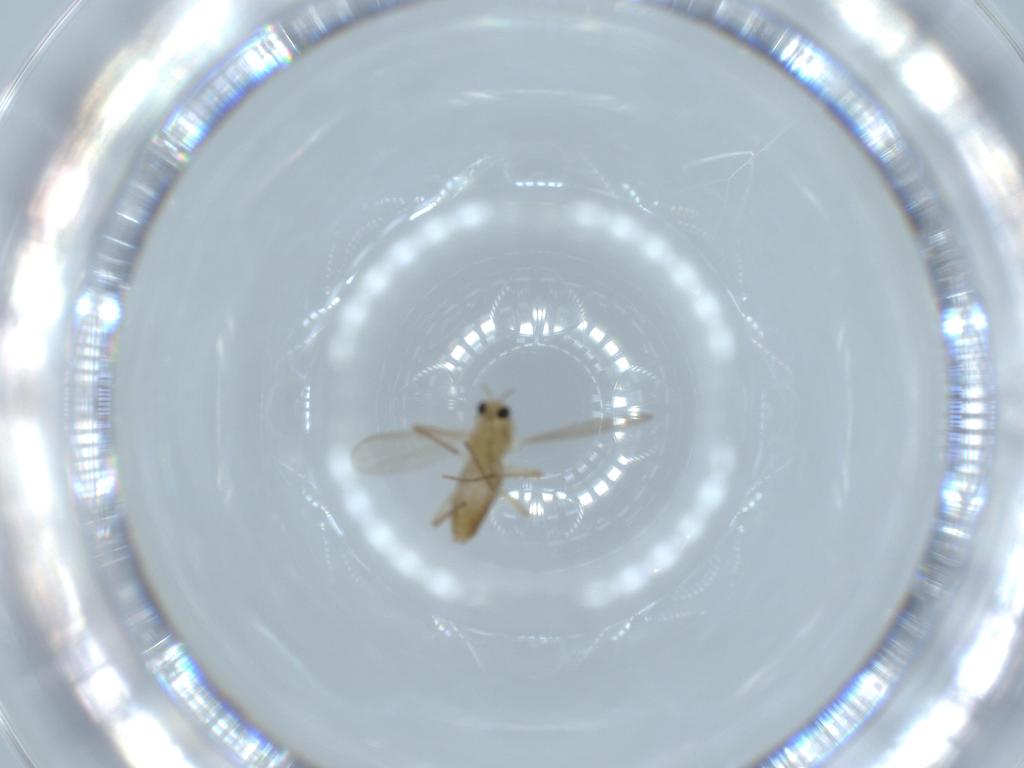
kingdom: Animalia
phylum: Arthropoda
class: Insecta
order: Diptera
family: Chironomidae
